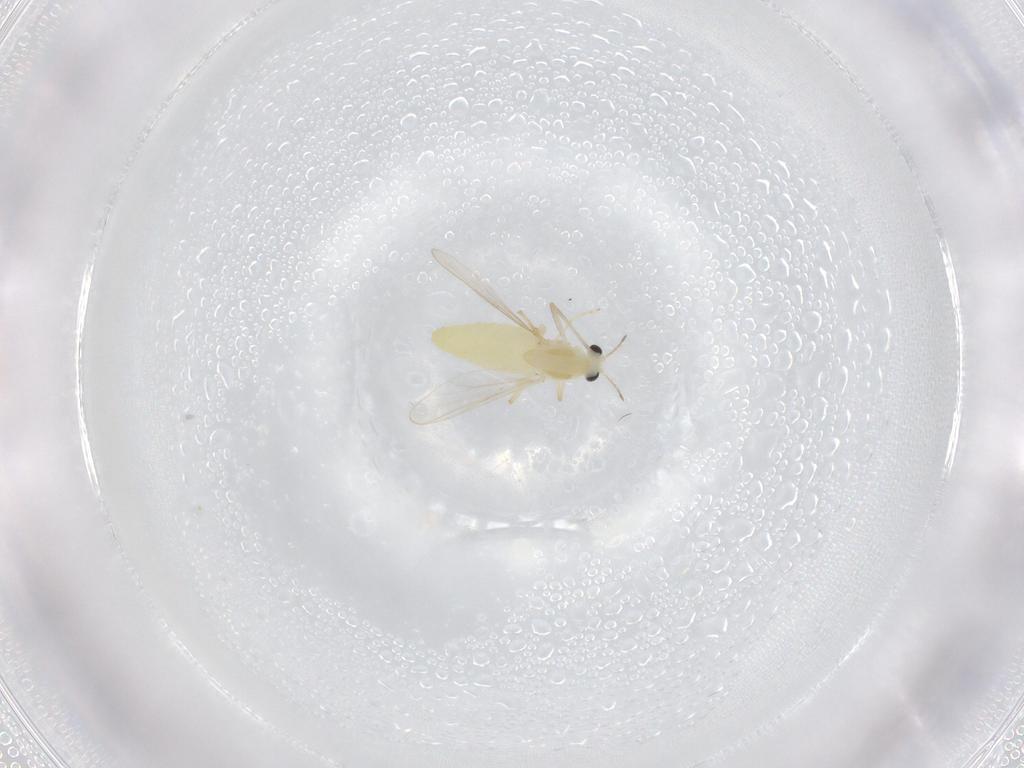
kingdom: Animalia
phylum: Arthropoda
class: Insecta
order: Diptera
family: Chironomidae
